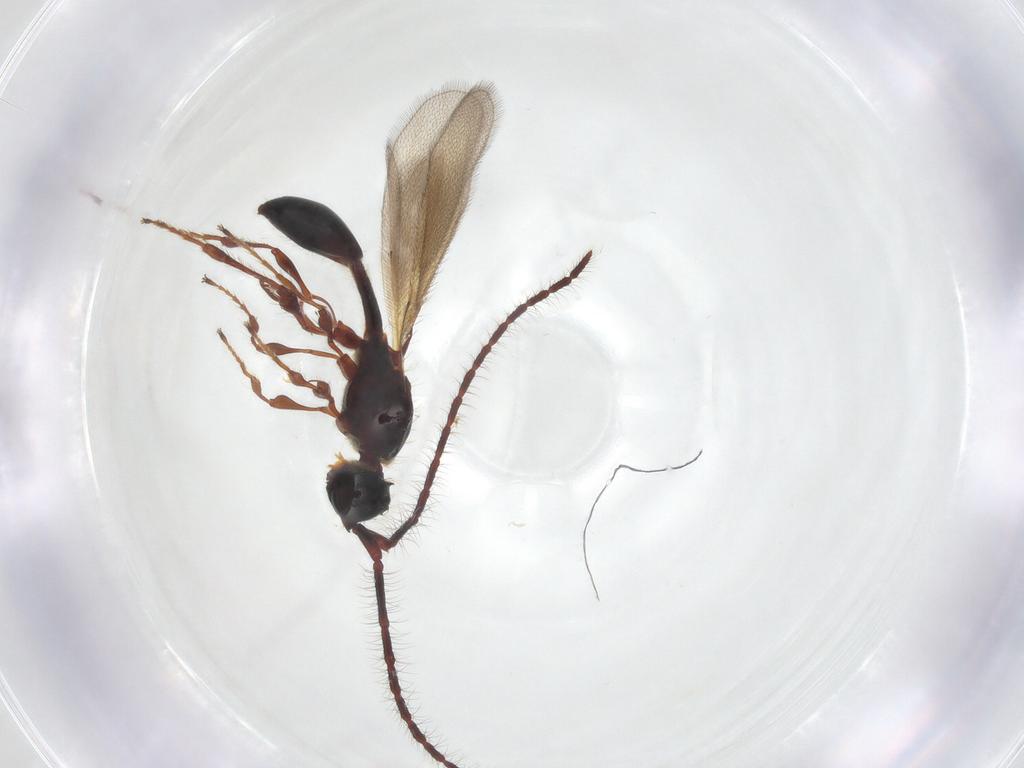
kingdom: Animalia
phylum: Arthropoda
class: Insecta
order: Hymenoptera
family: Diapriidae
